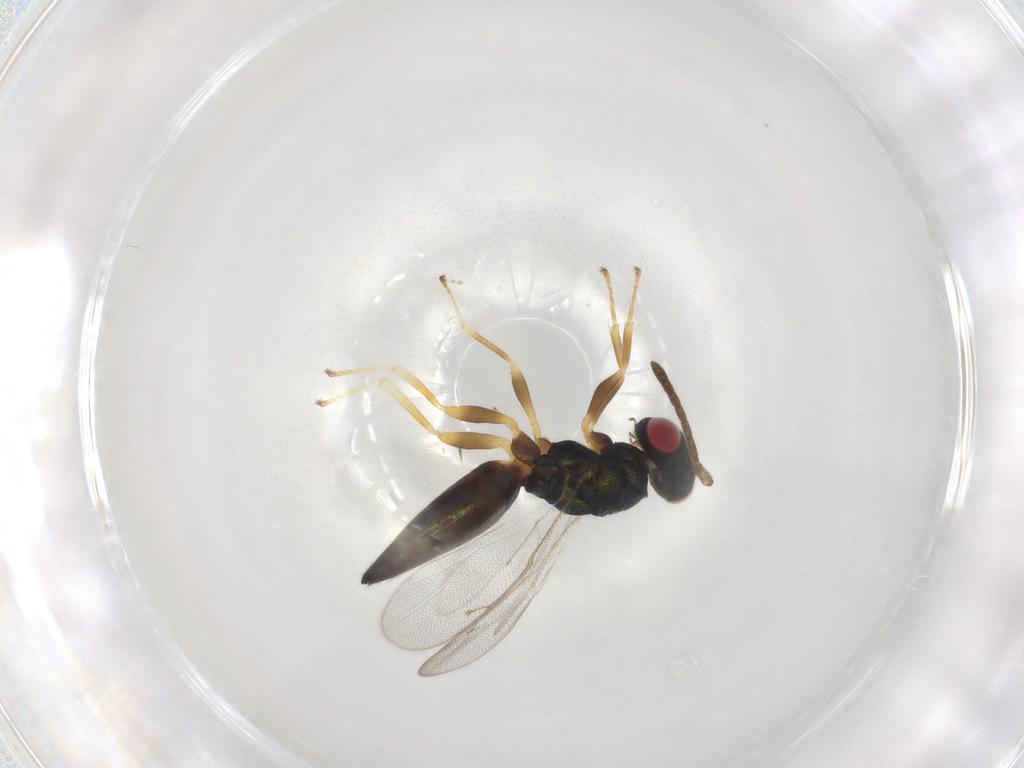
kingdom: Animalia
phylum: Arthropoda
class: Insecta
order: Hymenoptera
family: Pteromalidae
